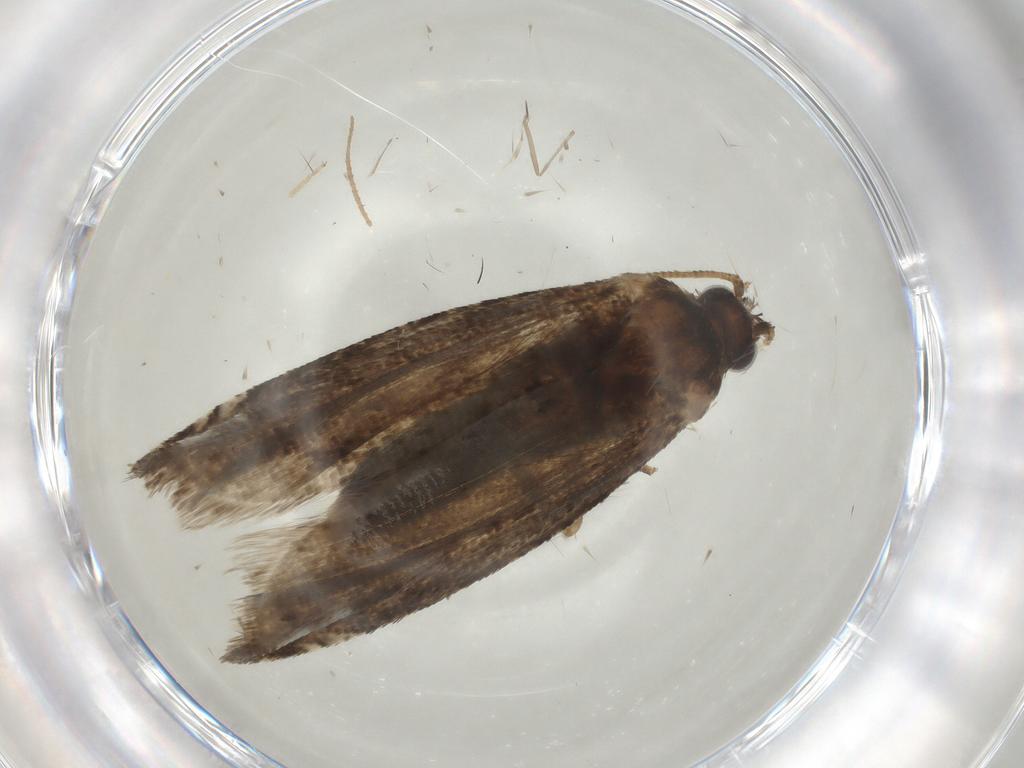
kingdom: Animalia
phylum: Arthropoda
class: Insecta
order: Lepidoptera
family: Tortricidae
